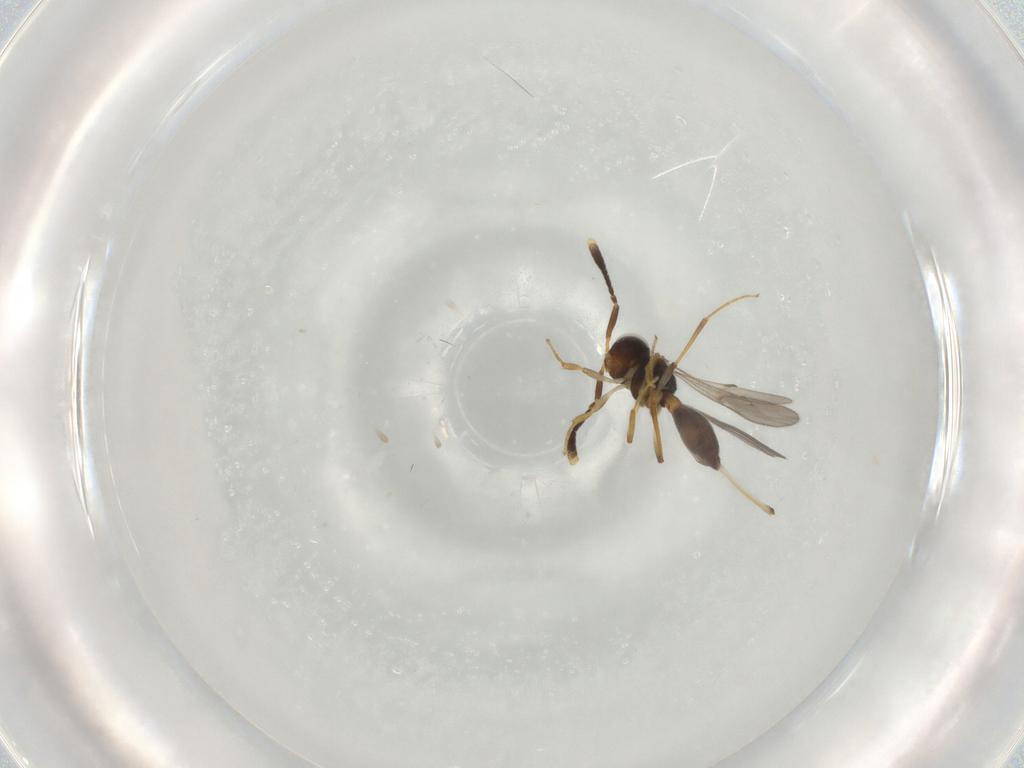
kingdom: Animalia
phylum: Arthropoda
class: Insecta
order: Hymenoptera
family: Scelionidae
